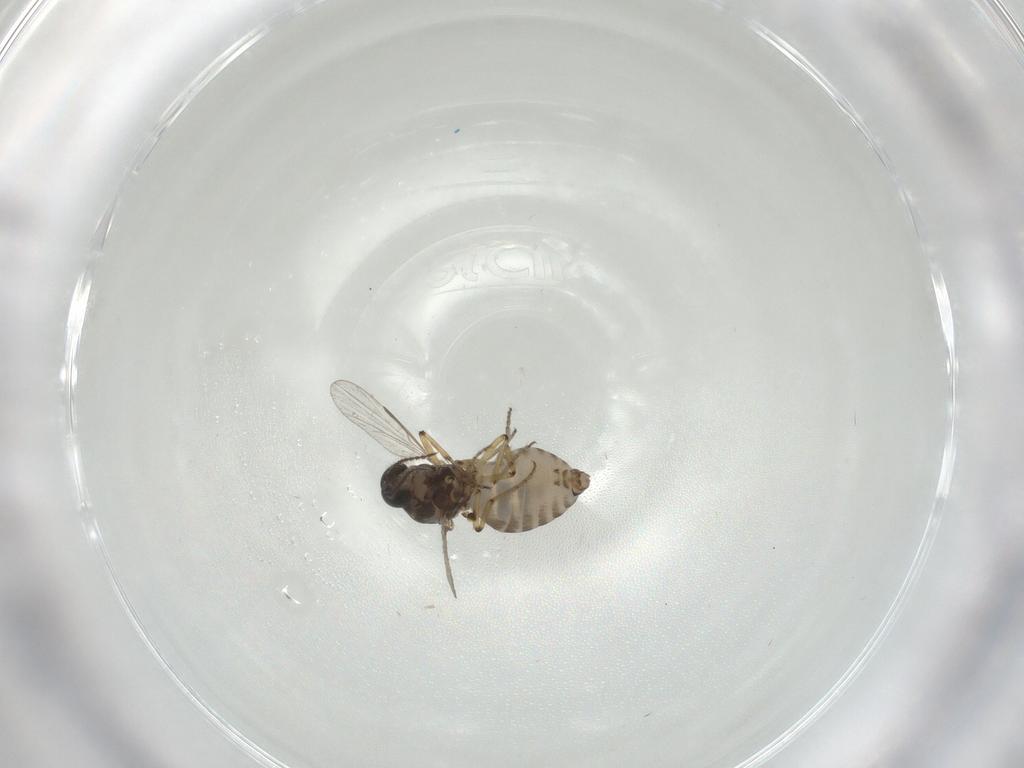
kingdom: Animalia
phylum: Arthropoda
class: Insecta
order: Diptera
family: Phoridae
